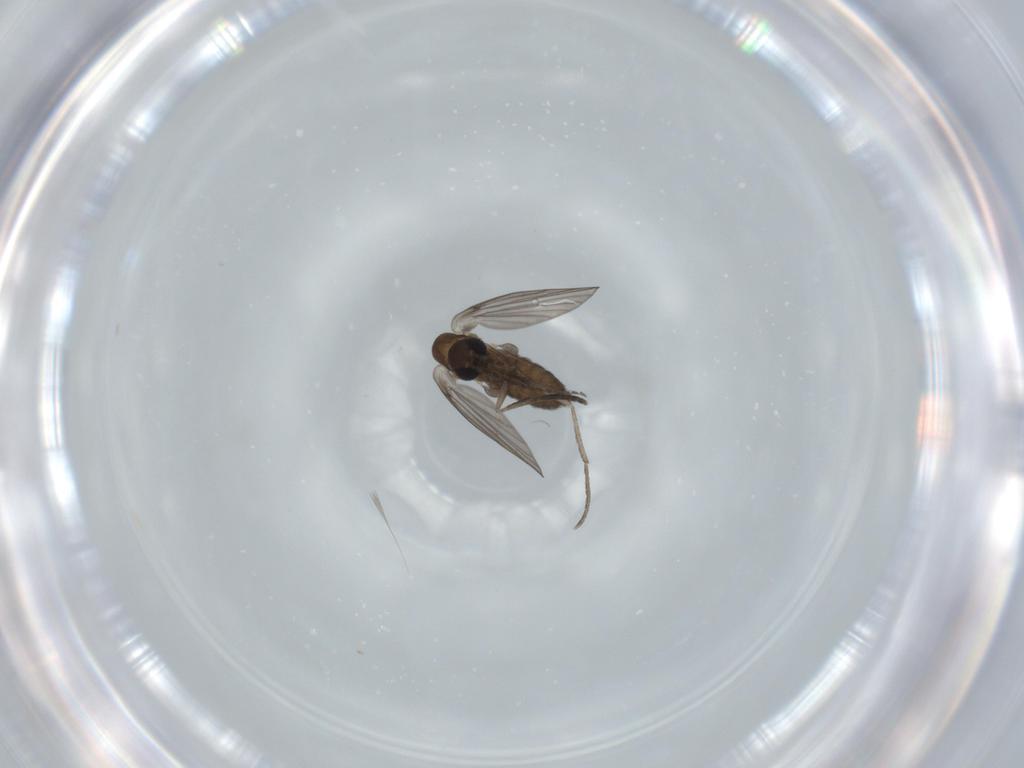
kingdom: Animalia
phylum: Arthropoda
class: Insecta
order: Diptera
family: Psychodidae
